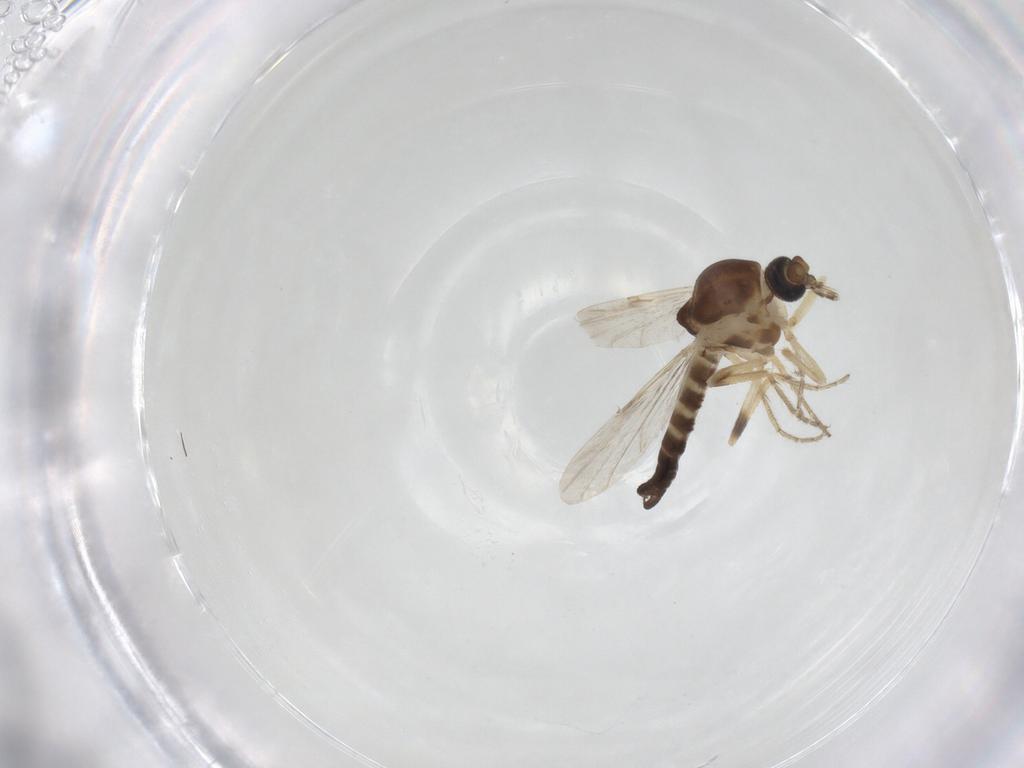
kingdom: Animalia
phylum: Arthropoda
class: Insecta
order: Diptera
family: Ceratopogonidae
